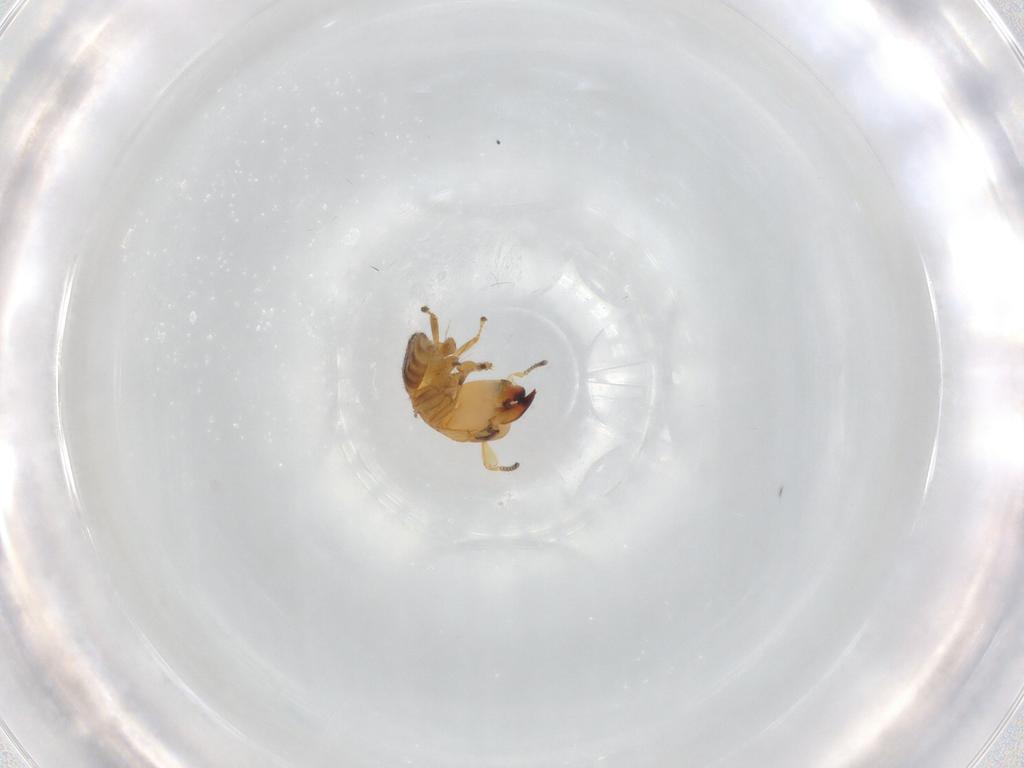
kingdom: Animalia
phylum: Arthropoda
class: Insecta
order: Hymenoptera
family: Pteromalidae
